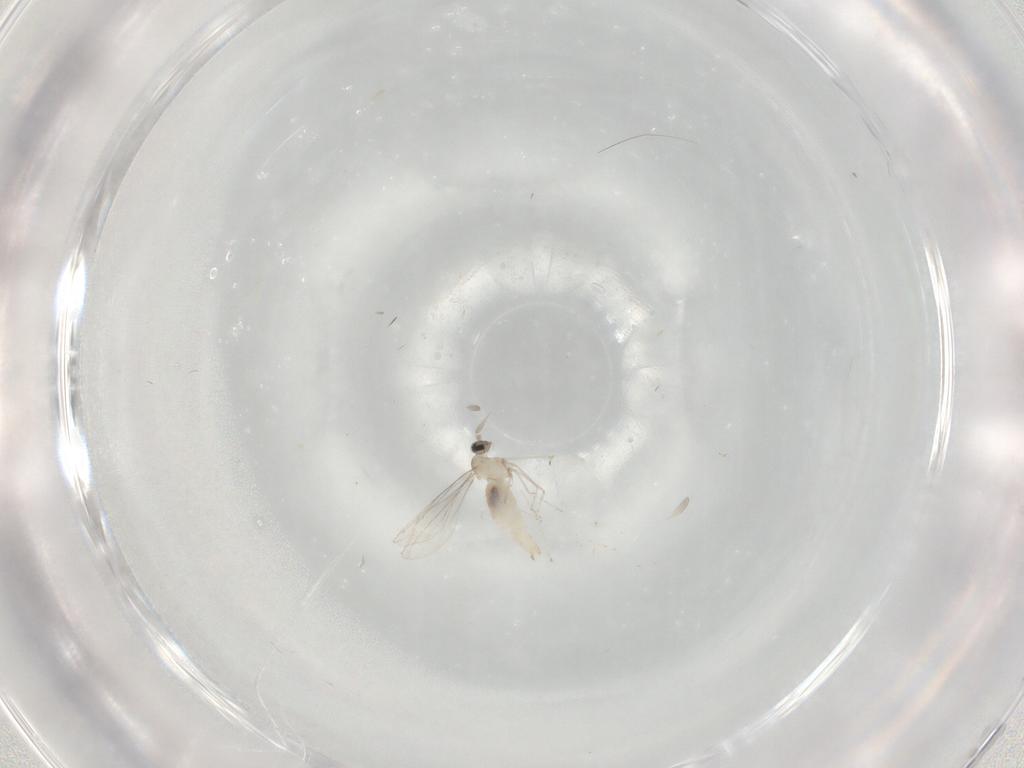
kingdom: Animalia
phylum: Arthropoda
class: Insecta
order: Diptera
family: Cecidomyiidae
